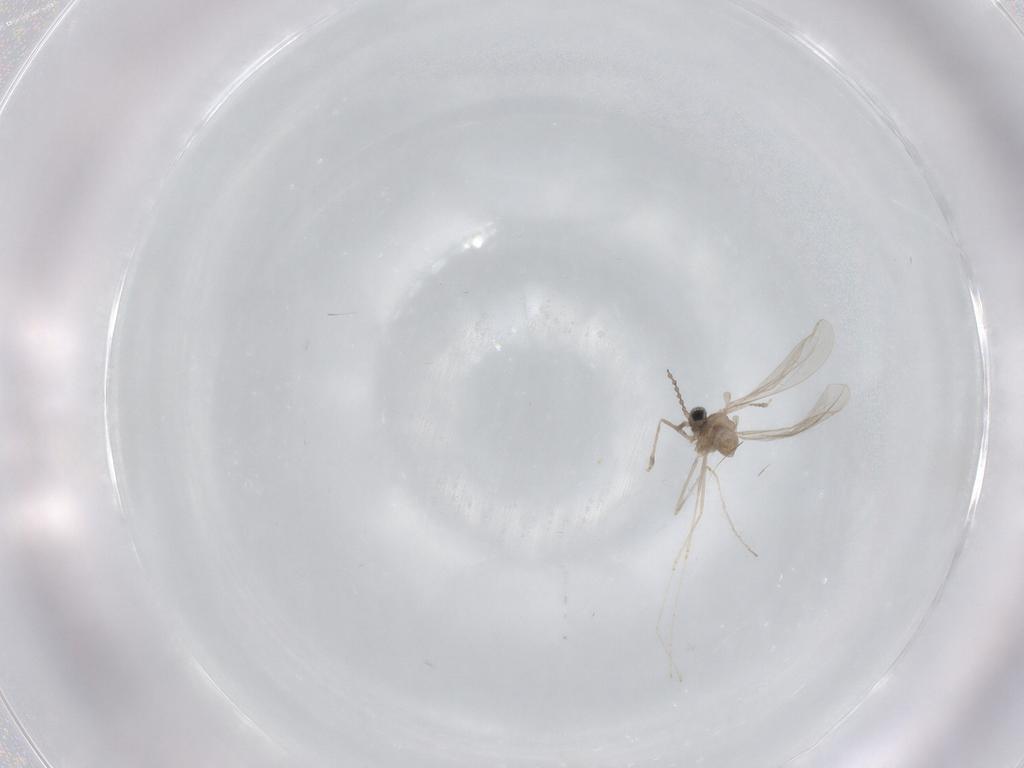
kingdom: Animalia
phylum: Arthropoda
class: Insecta
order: Diptera
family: Cecidomyiidae
